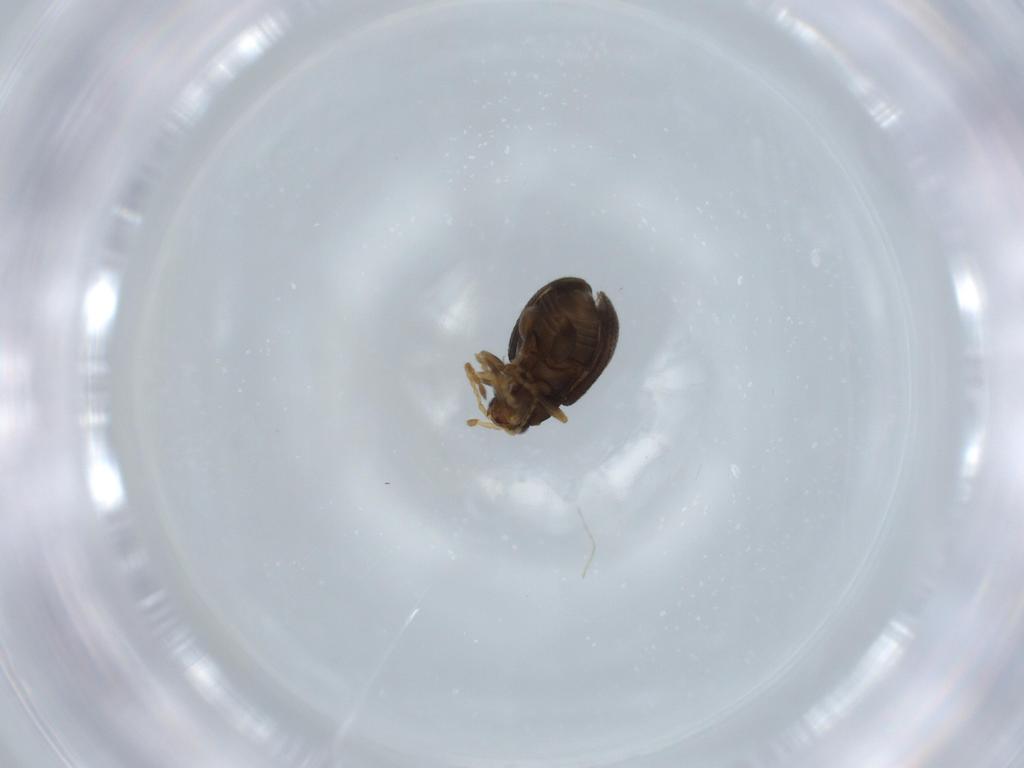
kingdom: Animalia
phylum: Arthropoda
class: Insecta
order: Coleoptera
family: Chrysomelidae
